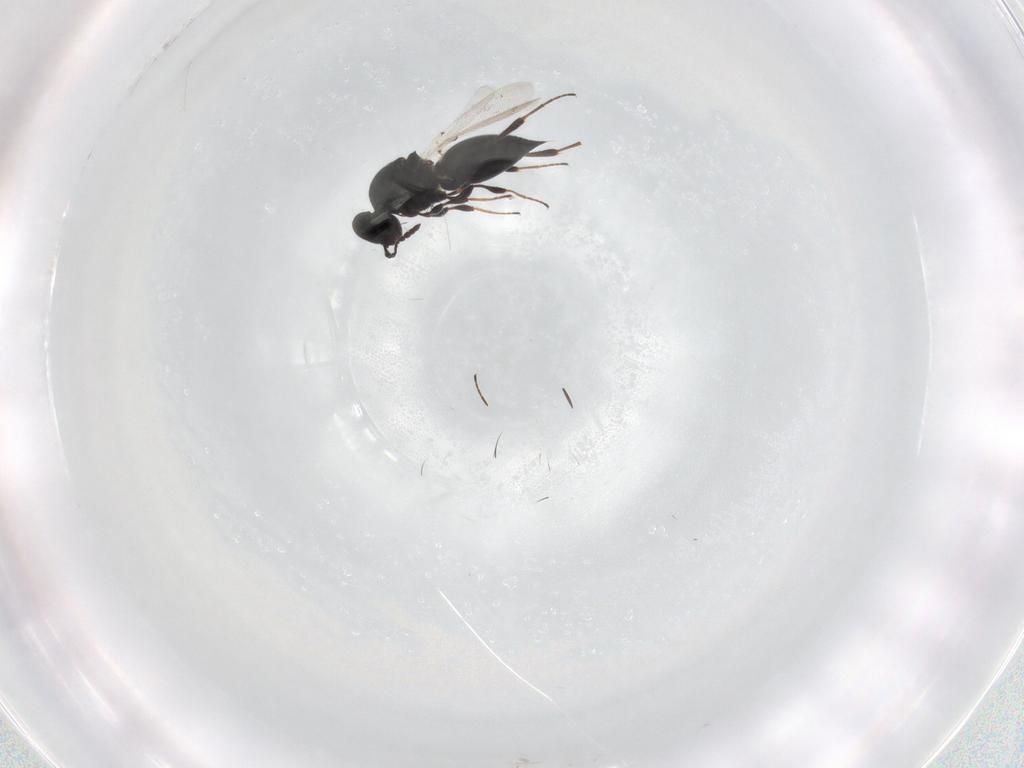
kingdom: Animalia
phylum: Arthropoda
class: Insecta
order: Hymenoptera
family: Platygastridae
